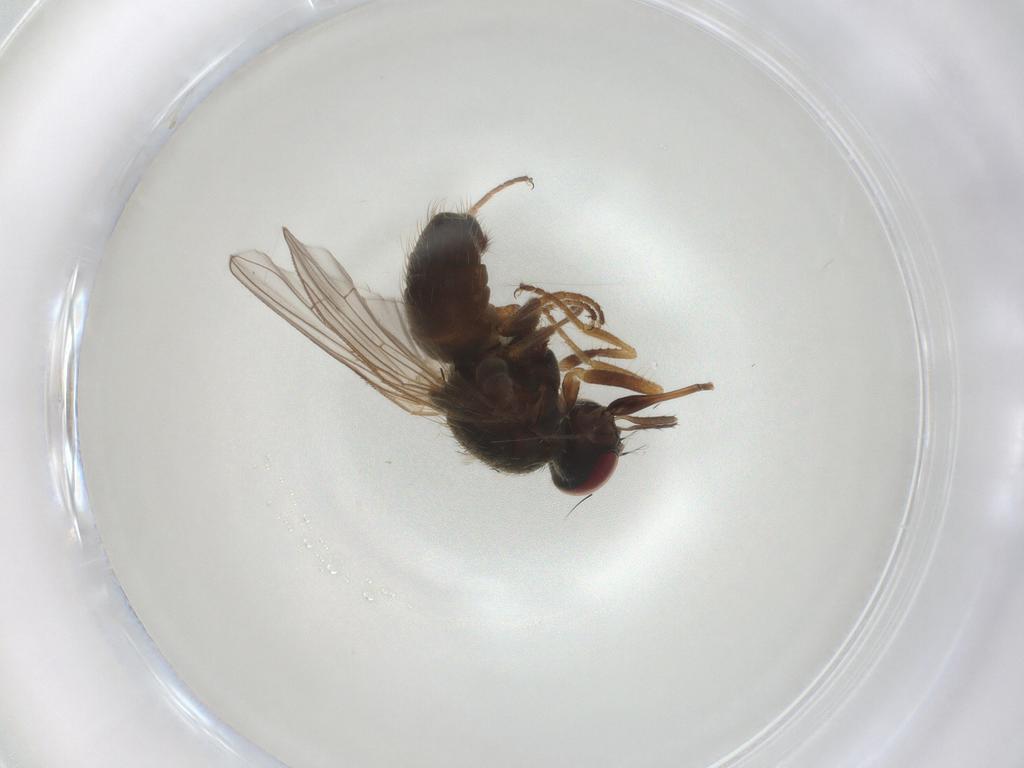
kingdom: Animalia
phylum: Arthropoda
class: Insecta
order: Diptera
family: Muscidae
